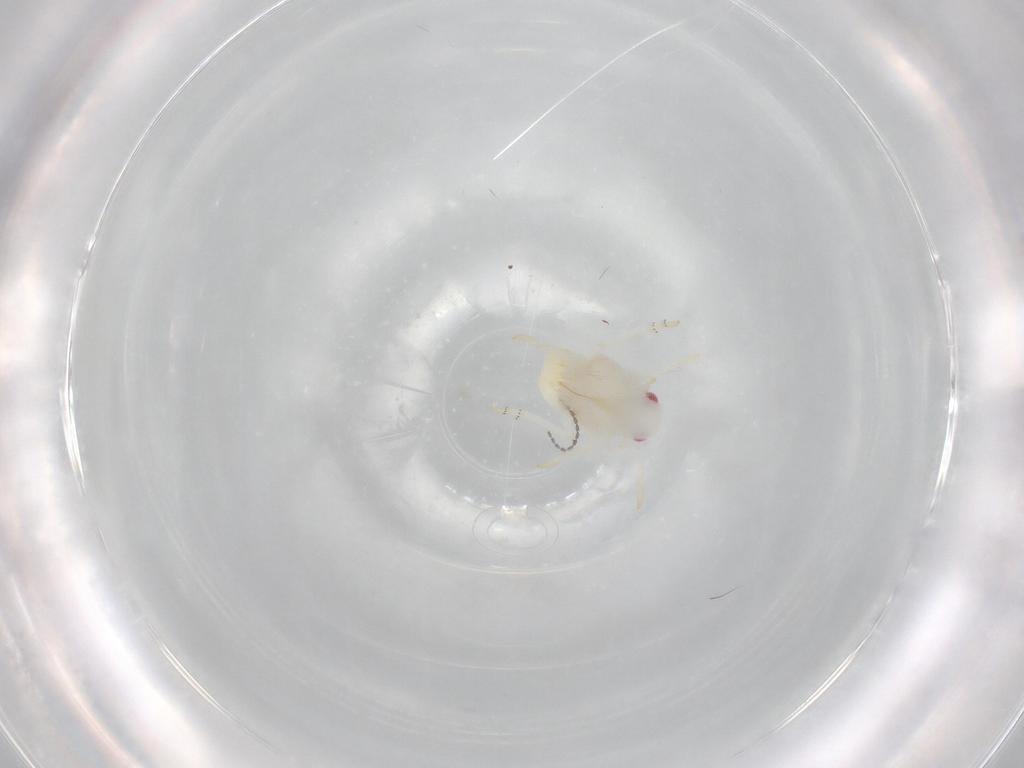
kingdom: Animalia
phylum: Arthropoda
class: Insecta
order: Hemiptera
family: Flatidae
